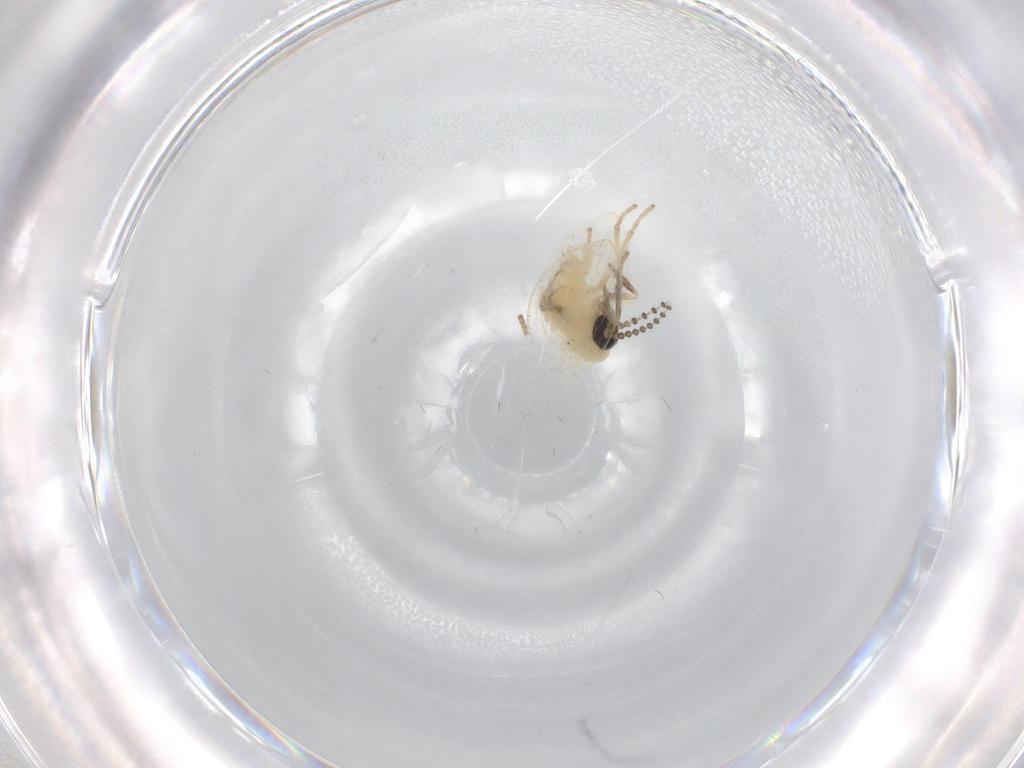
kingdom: Animalia
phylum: Arthropoda
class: Insecta
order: Diptera
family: Psychodidae
